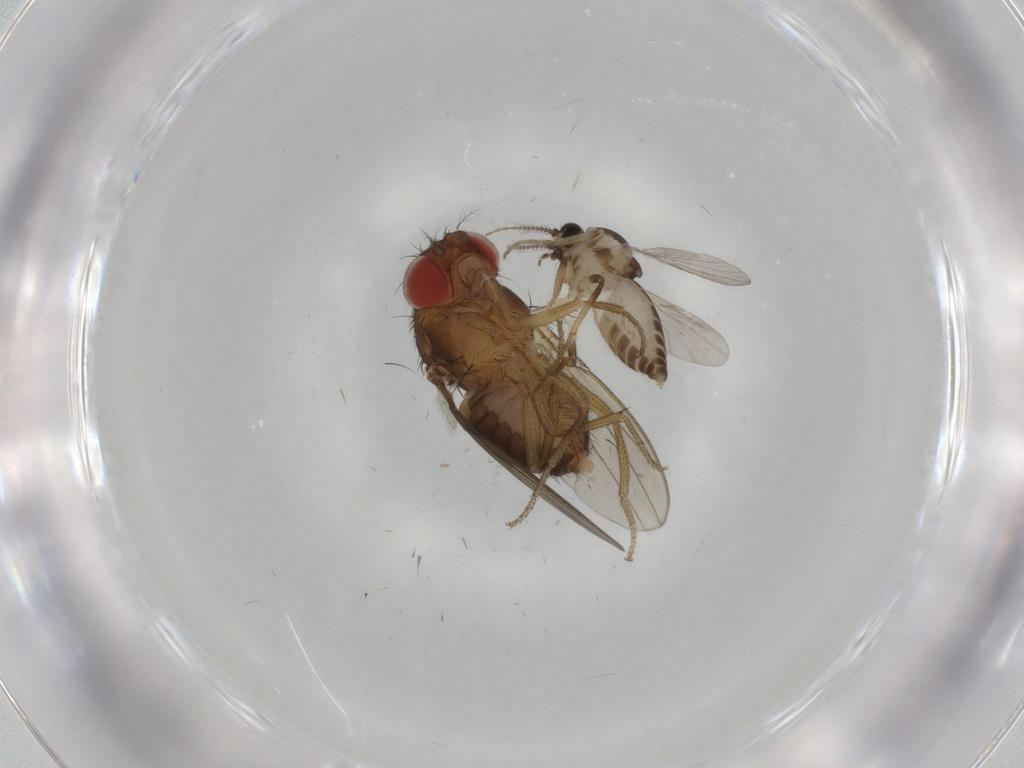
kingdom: Animalia
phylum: Arthropoda
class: Insecta
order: Diptera
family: Drosophilidae
